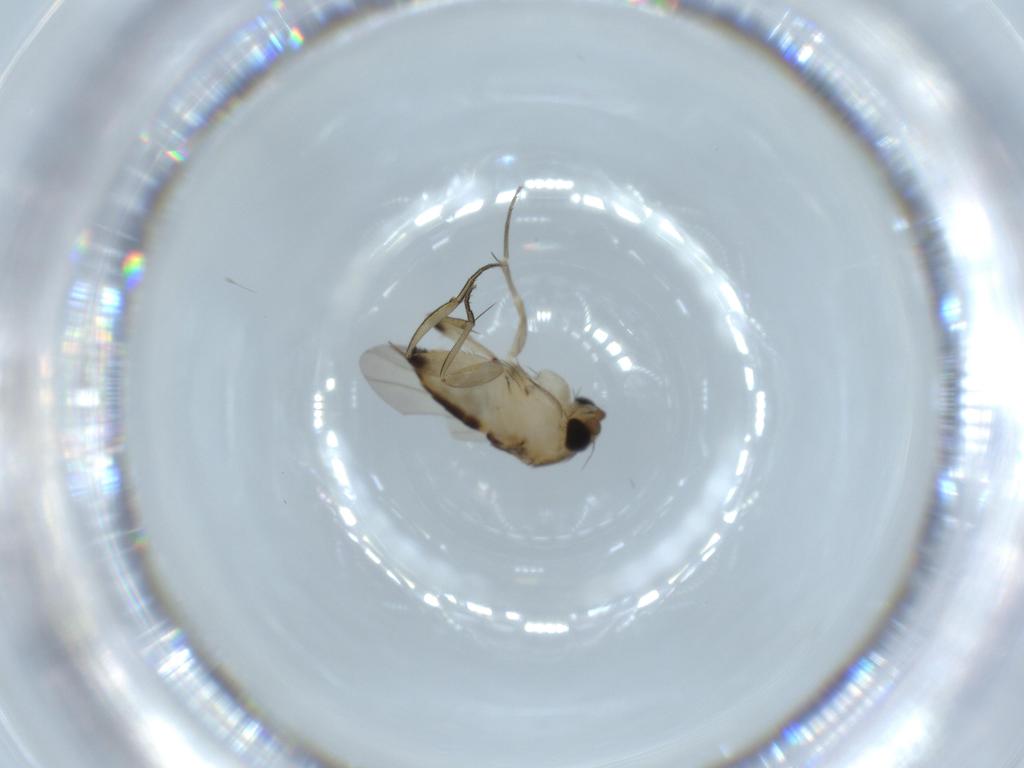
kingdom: Animalia
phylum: Arthropoda
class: Insecta
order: Diptera
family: Phoridae
